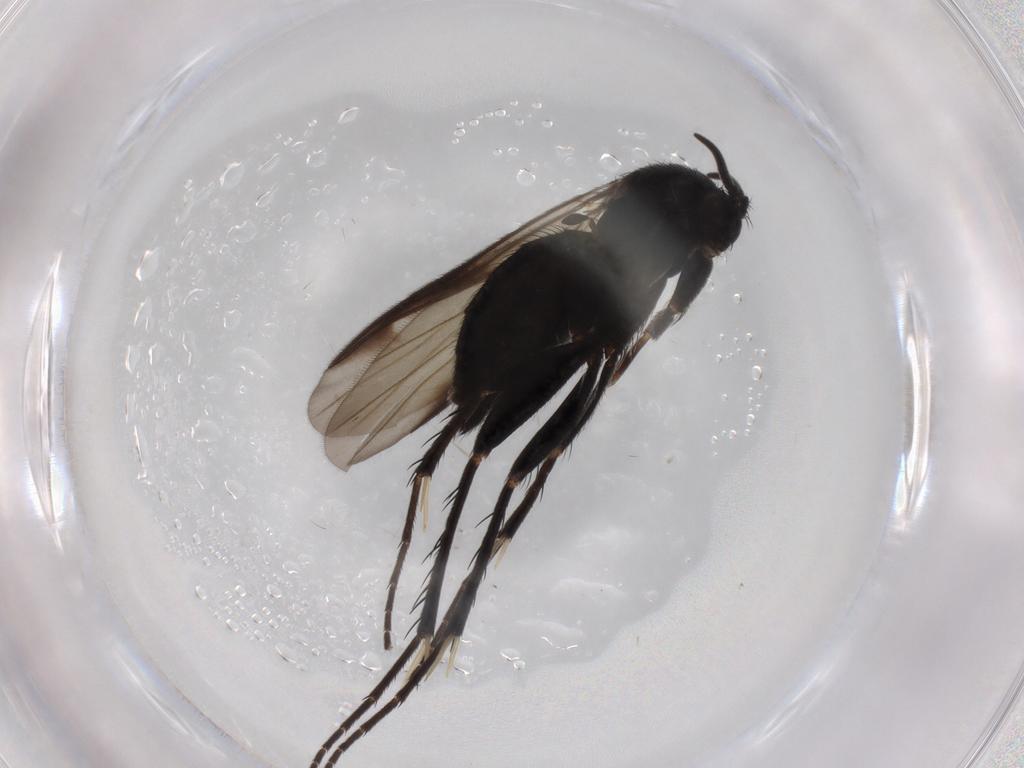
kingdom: Animalia
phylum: Arthropoda
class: Insecta
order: Diptera
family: Mycetophilidae
